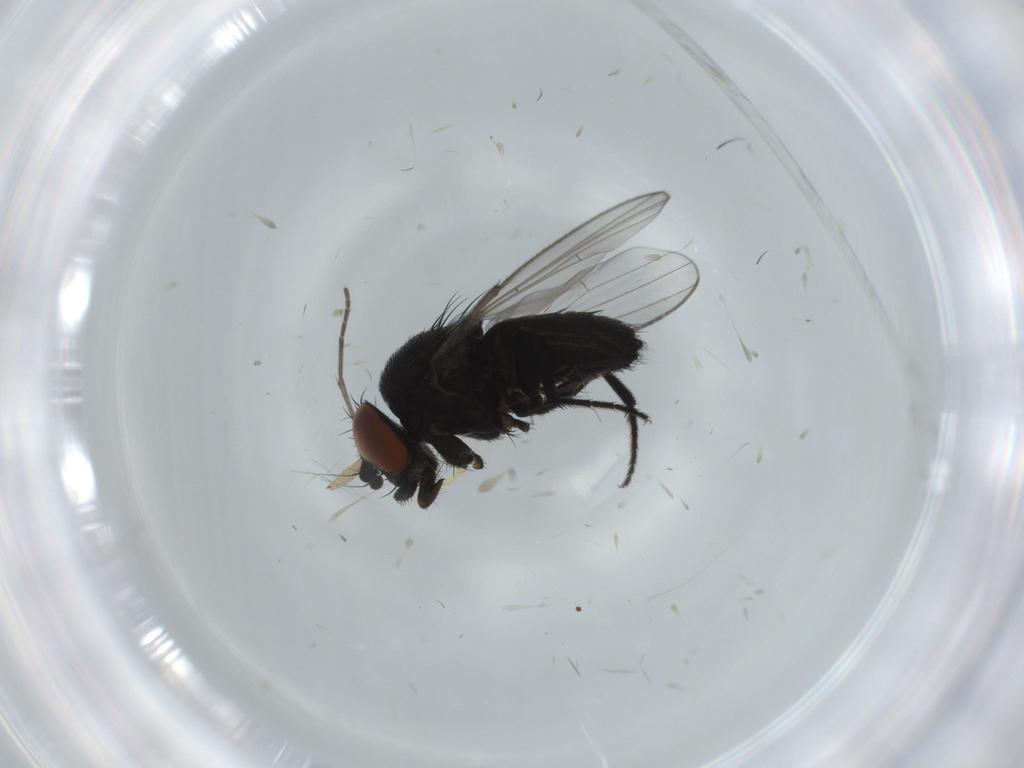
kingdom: Animalia
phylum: Arthropoda
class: Insecta
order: Diptera
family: Milichiidae
